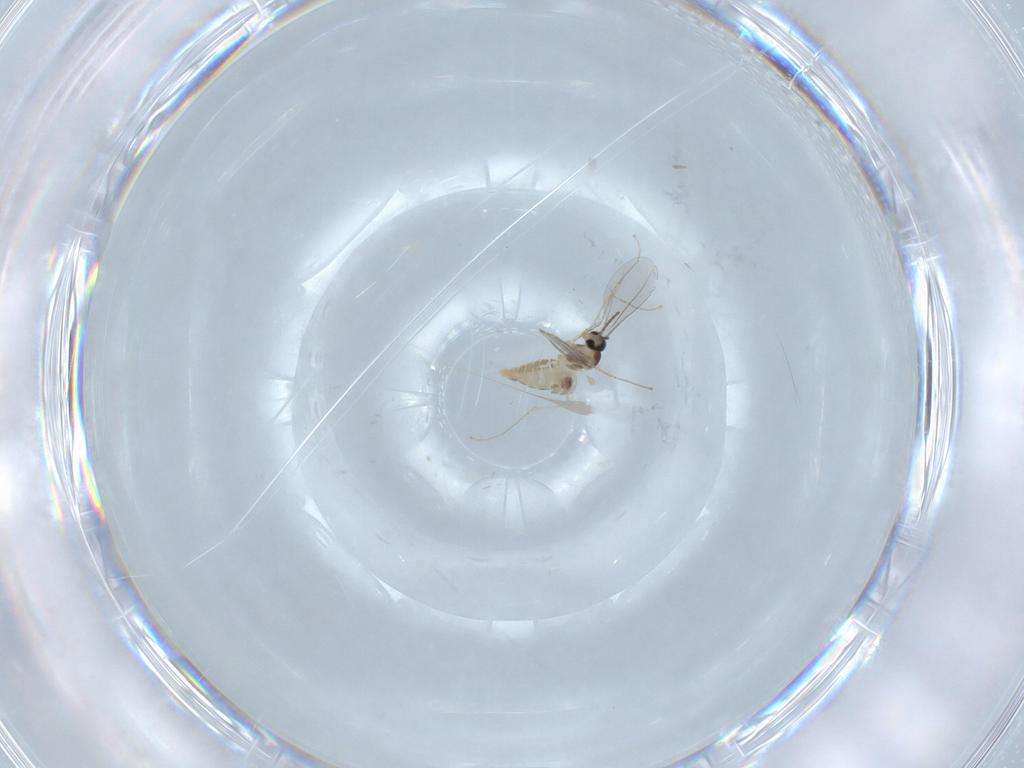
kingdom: Animalia
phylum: Arthropoda
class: Insecta
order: Diptera
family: Cecidomyiidae
